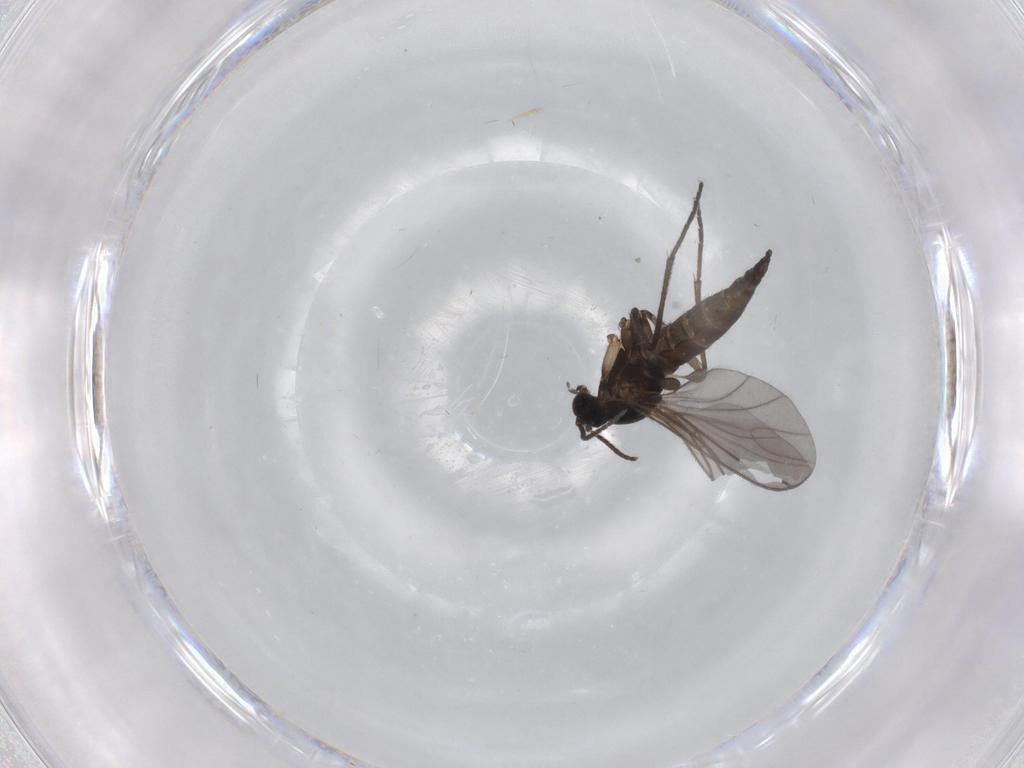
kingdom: Animalia
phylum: Arthropoda
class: Insecta
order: Diptera
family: Sciaridae
